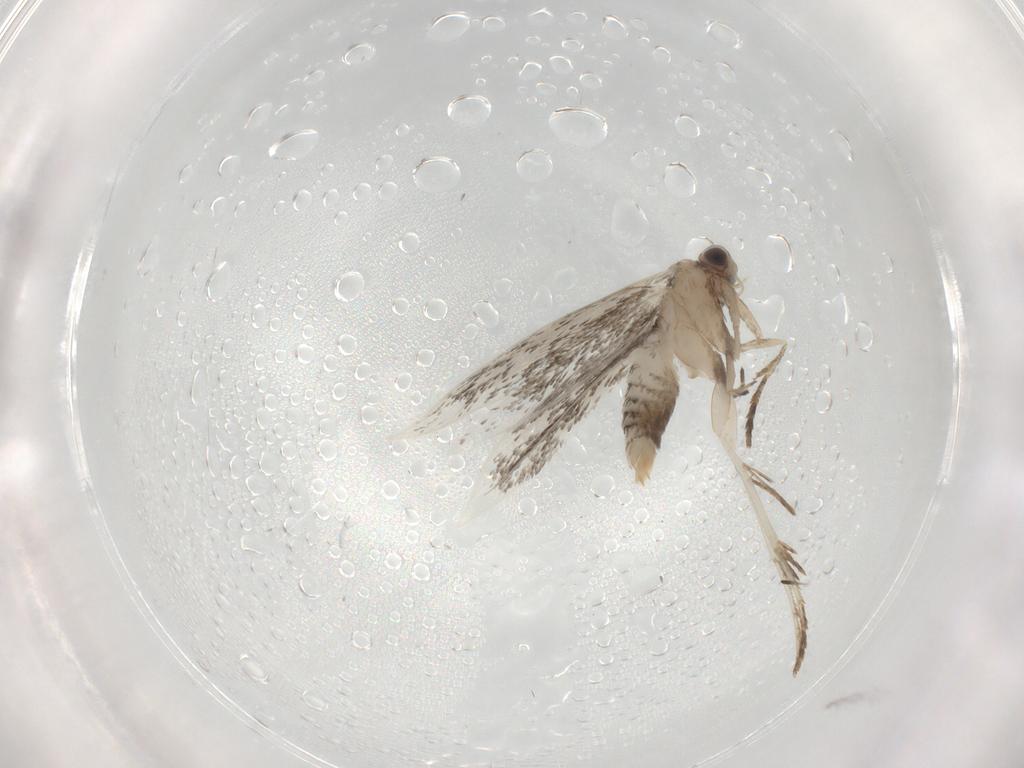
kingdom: Animalia
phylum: Arthropoda
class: Insecta
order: Lepidoptera
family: Tineidae
